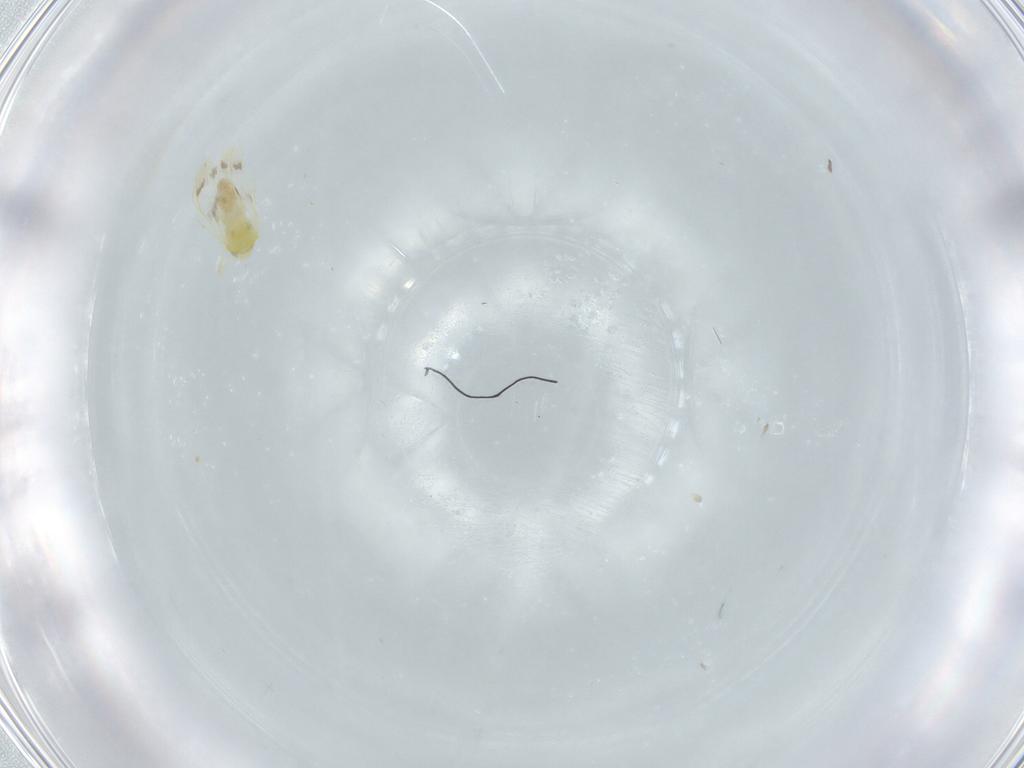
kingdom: Animalia
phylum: Arthropoda
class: Insecta
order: Hemiptera
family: Aleyrodidae
